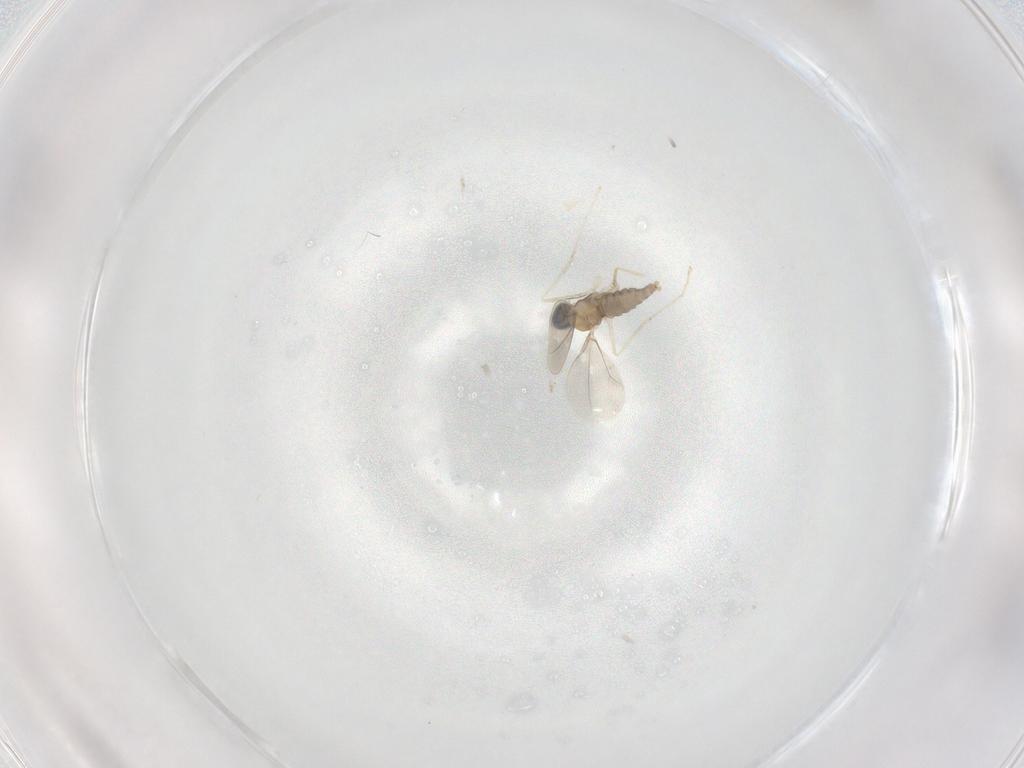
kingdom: Animalia
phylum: Arthropoda
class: Insecta
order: Diptera
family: Cecidomyiidae
